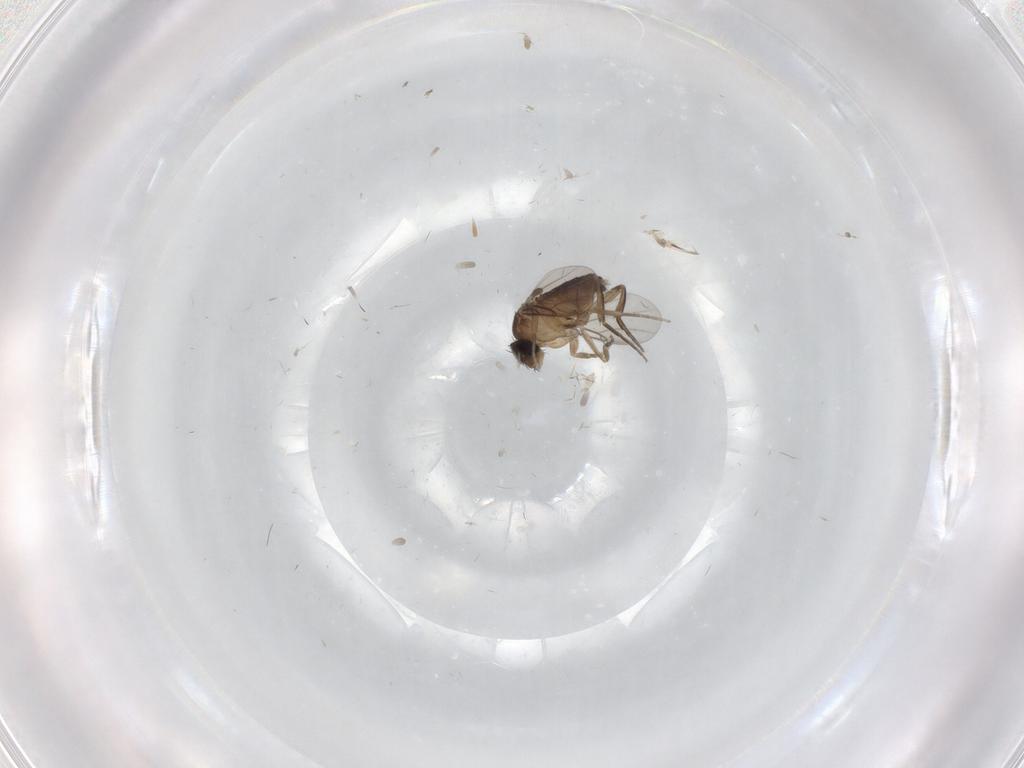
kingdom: Animalia
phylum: Arthropoda
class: Insecta
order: Diptera
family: Phoridae
